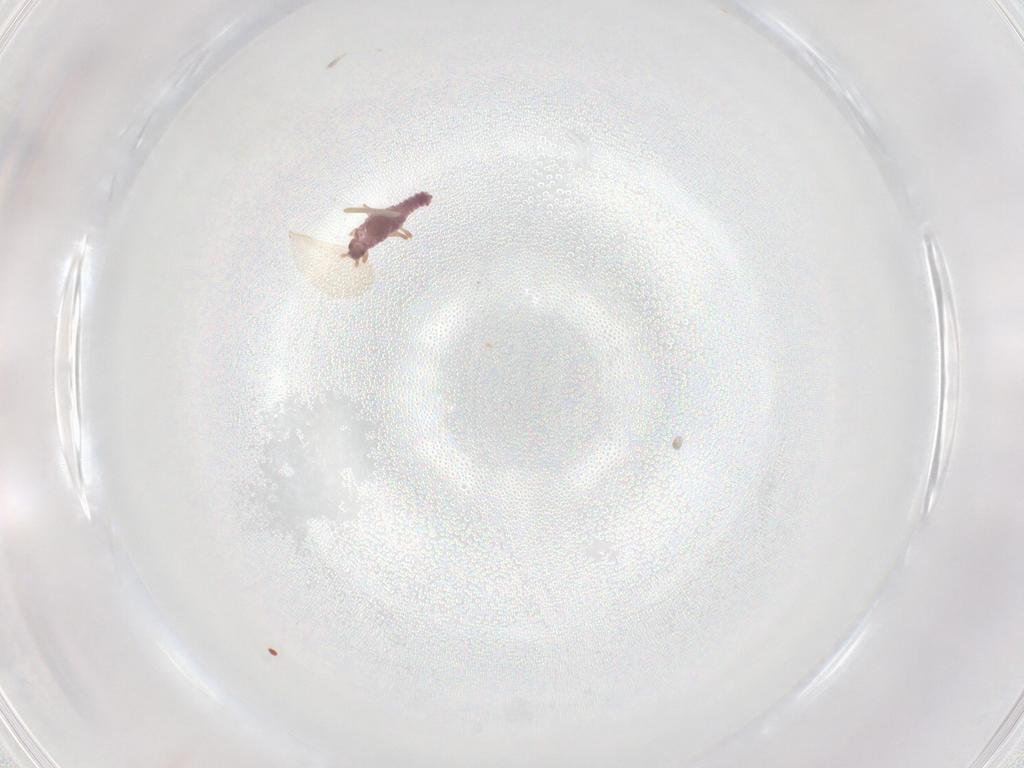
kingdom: Animalia
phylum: Arthropoda
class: Insecta
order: Hemiptera
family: Pseudococcidae
